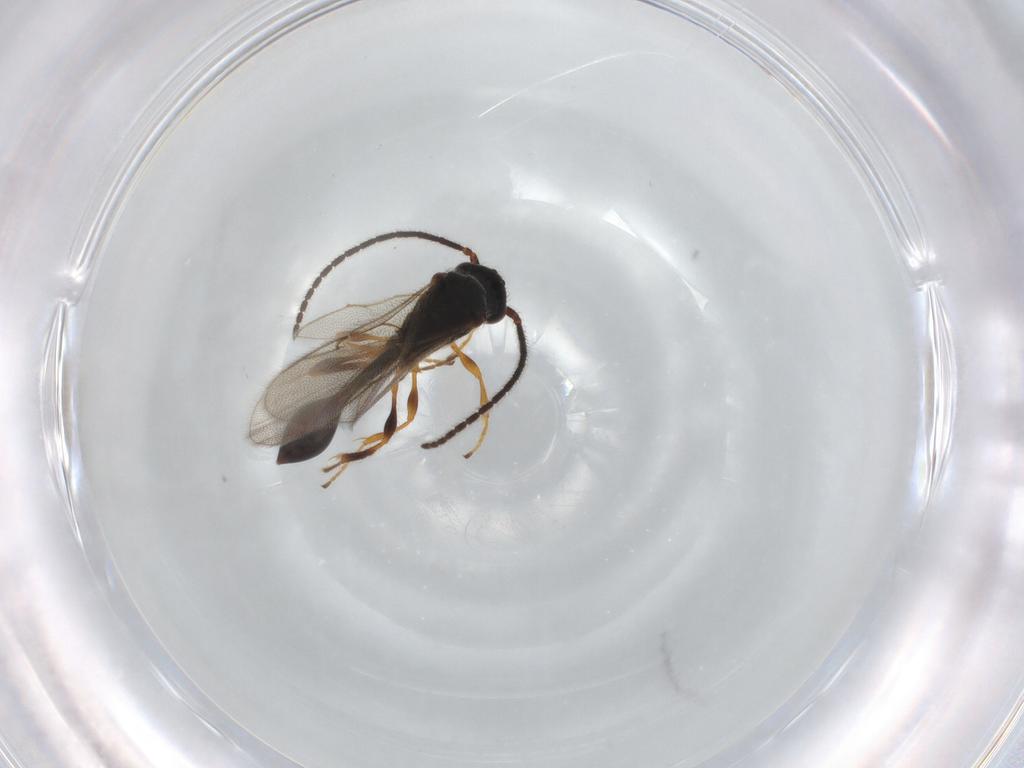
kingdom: Animalia
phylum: Arthropoda
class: Insecta
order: Hymenoptera
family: Diapriidae
